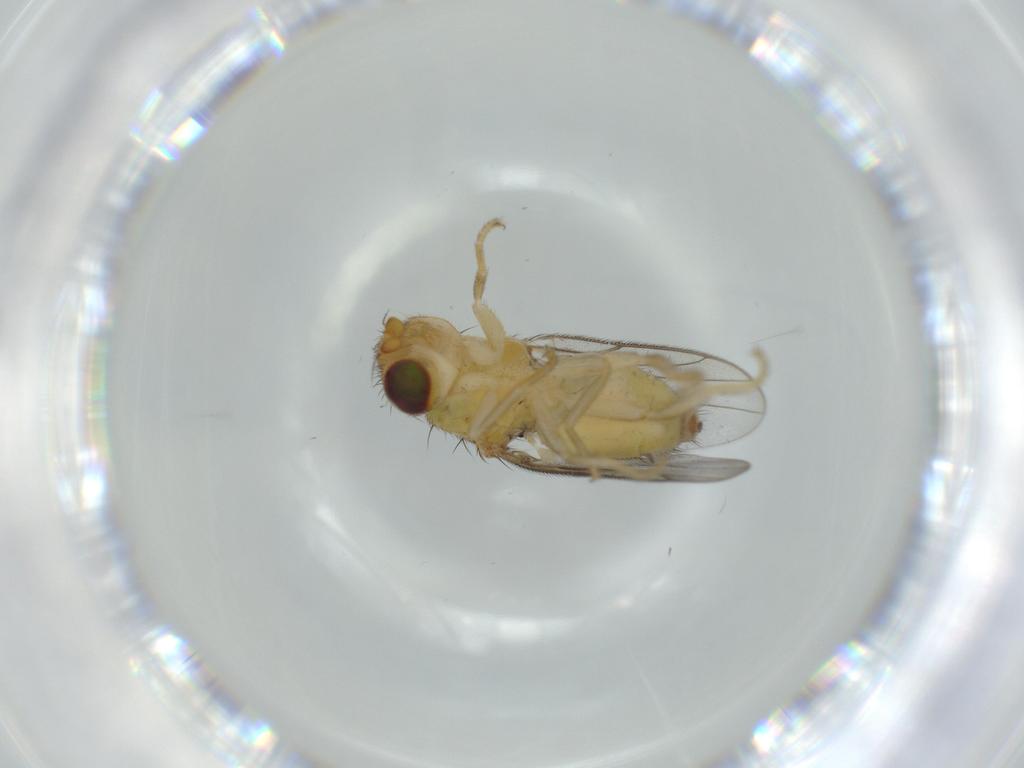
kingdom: Animalia
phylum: Arthropoda
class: Insecta
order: Diptera
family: Chloropidae
